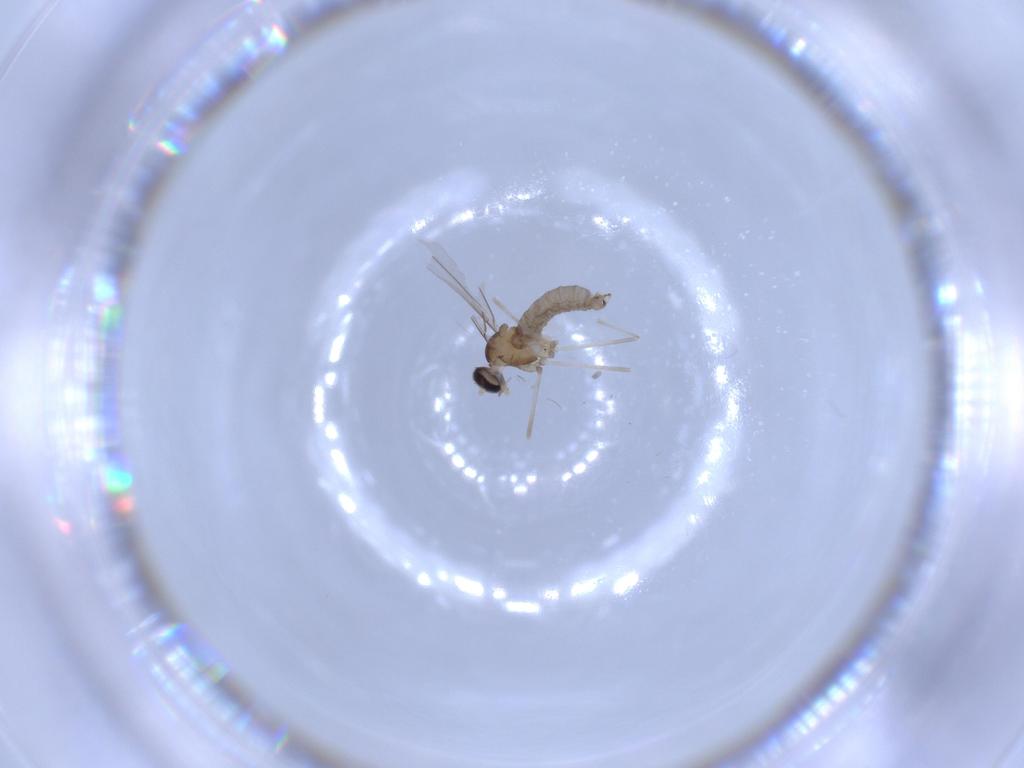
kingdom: Animalia
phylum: Arthropoda
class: Insecta
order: Diptera
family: Cecidomyiidae
